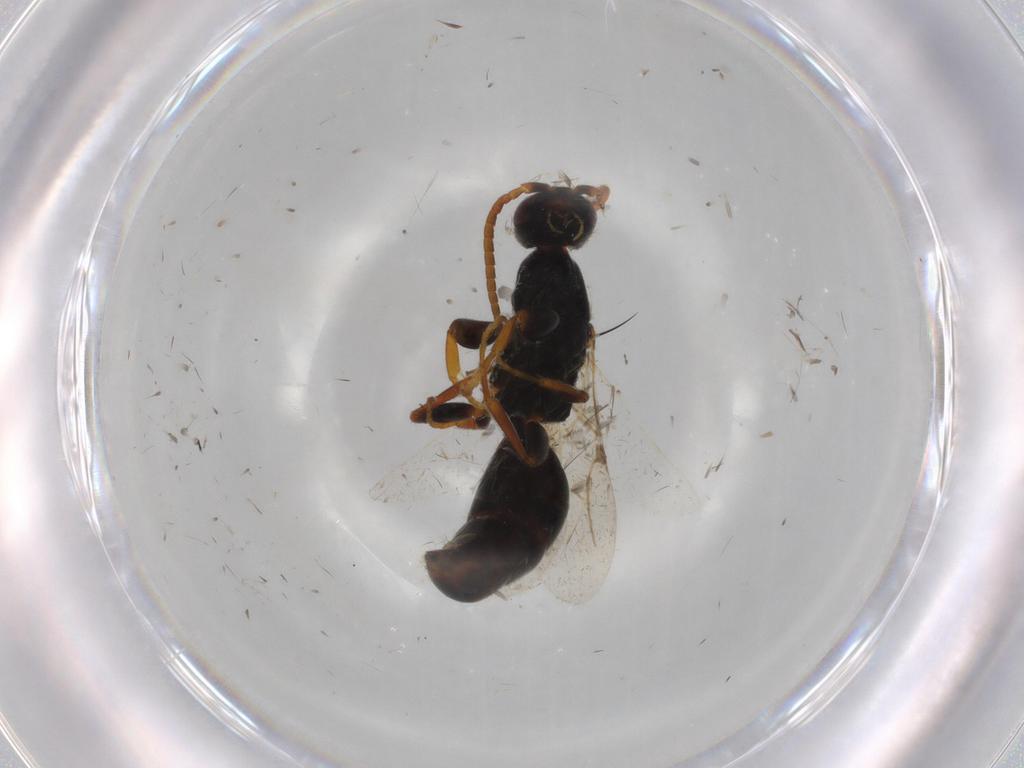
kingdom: Animalia
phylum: Arthropoda
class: Insecta
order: Hymenoptera
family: Bethylidae
